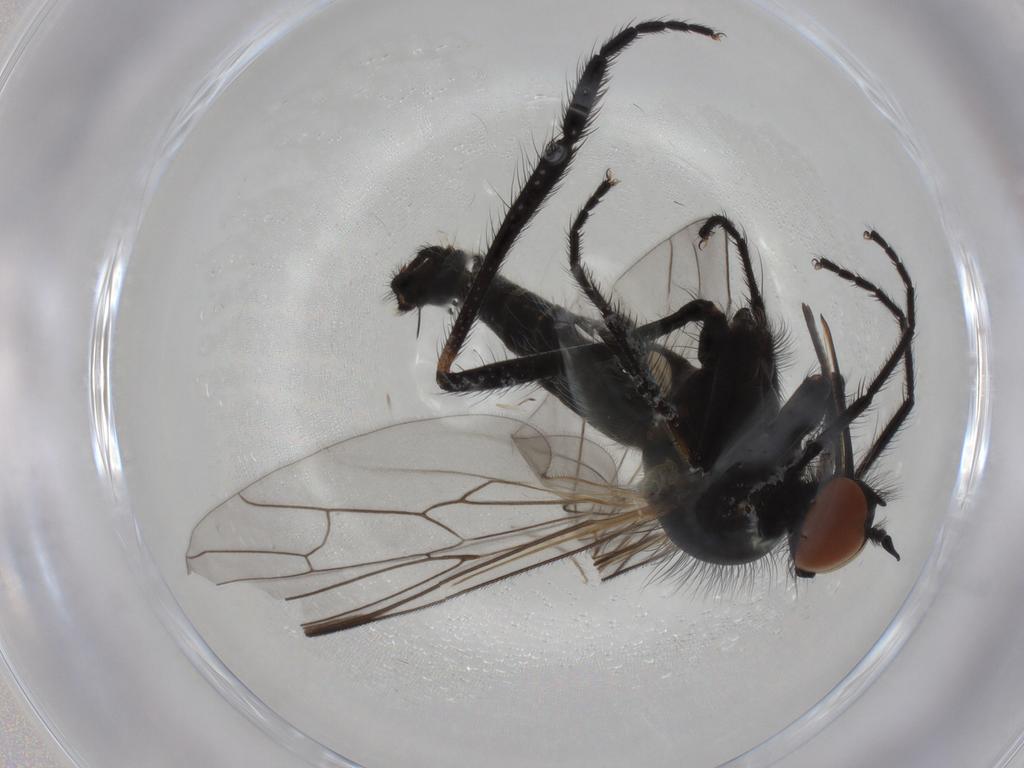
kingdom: Animalia
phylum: Arthropoda
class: Insecta
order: Diptera
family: Empididae
